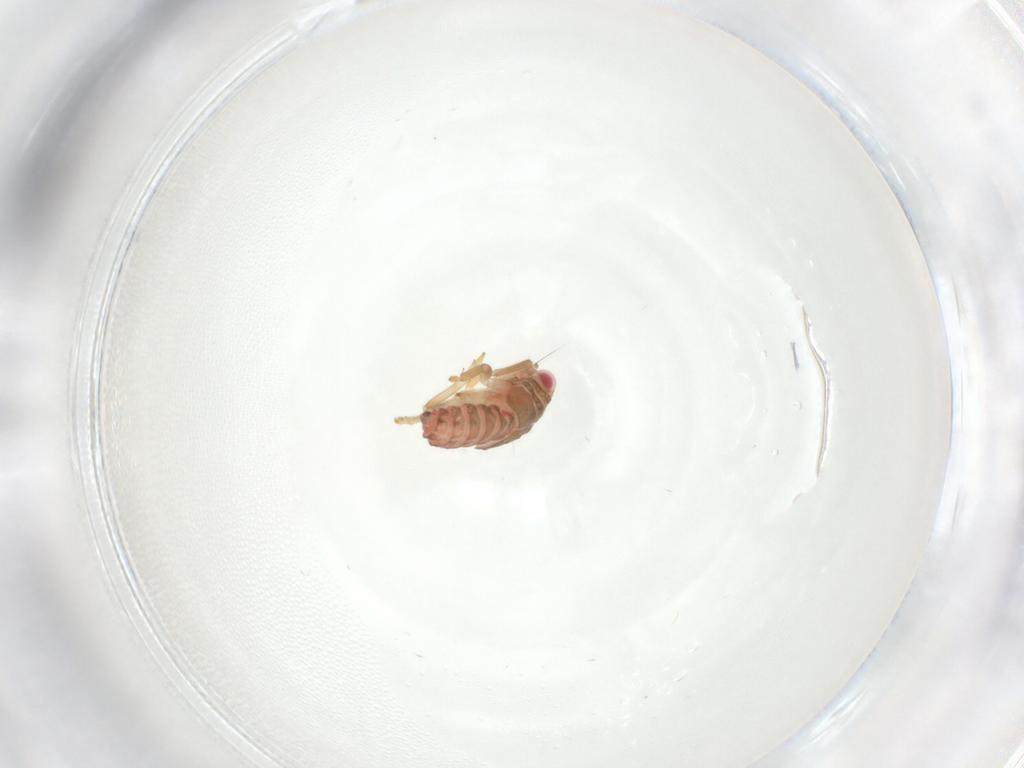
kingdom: Animalia
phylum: Arthropoda
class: Insecta
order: Hemiptera
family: Issidae
